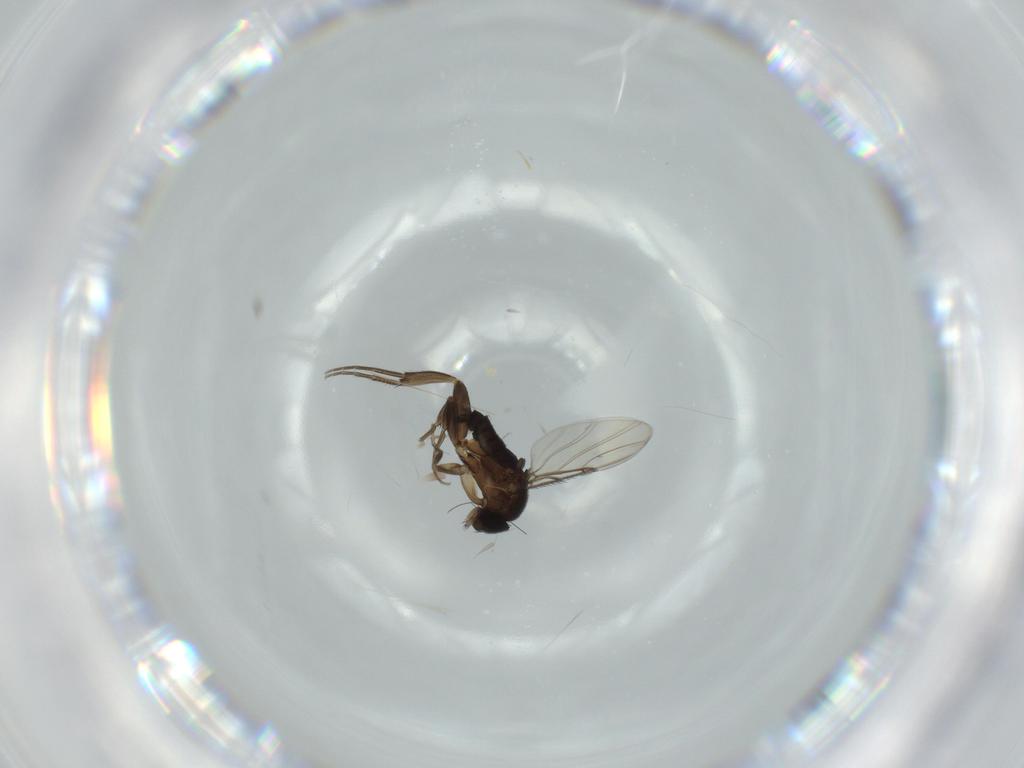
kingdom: Animalia
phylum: Arthropoda
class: Insecta
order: Diptera
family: Phoridae
